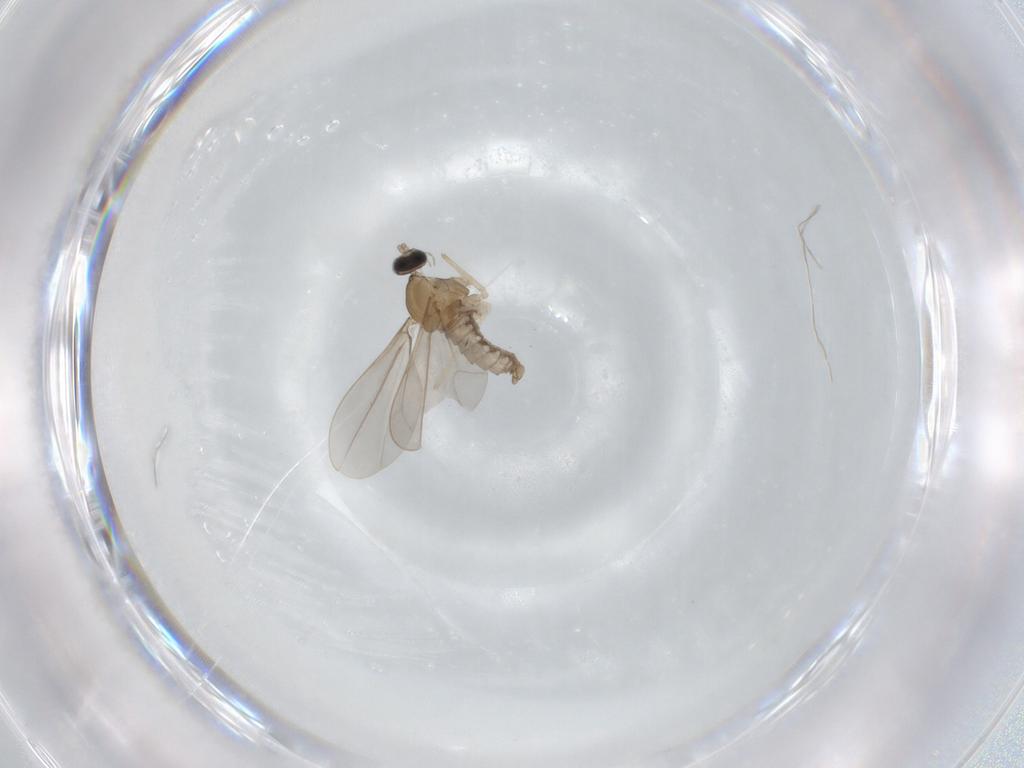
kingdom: Animalia
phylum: Arthropoda
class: Insecta
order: Diptera
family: Cecidomyiidae
